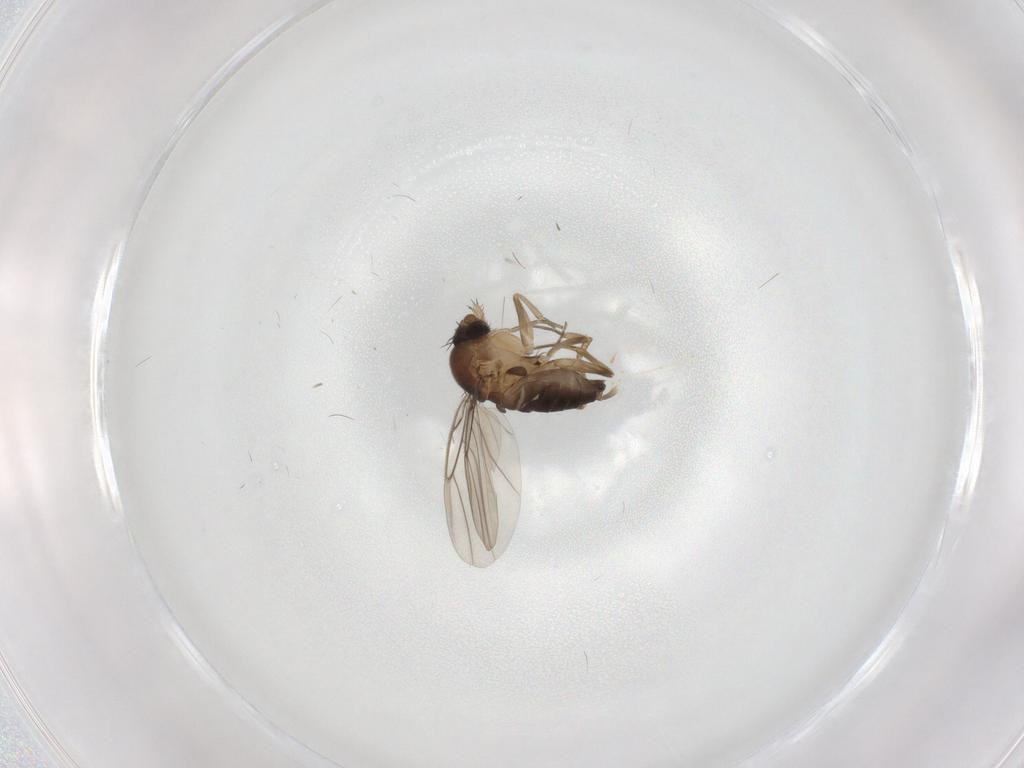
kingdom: Animalia
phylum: Arthropoda
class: Insecta
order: Diptera
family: Phoridae
